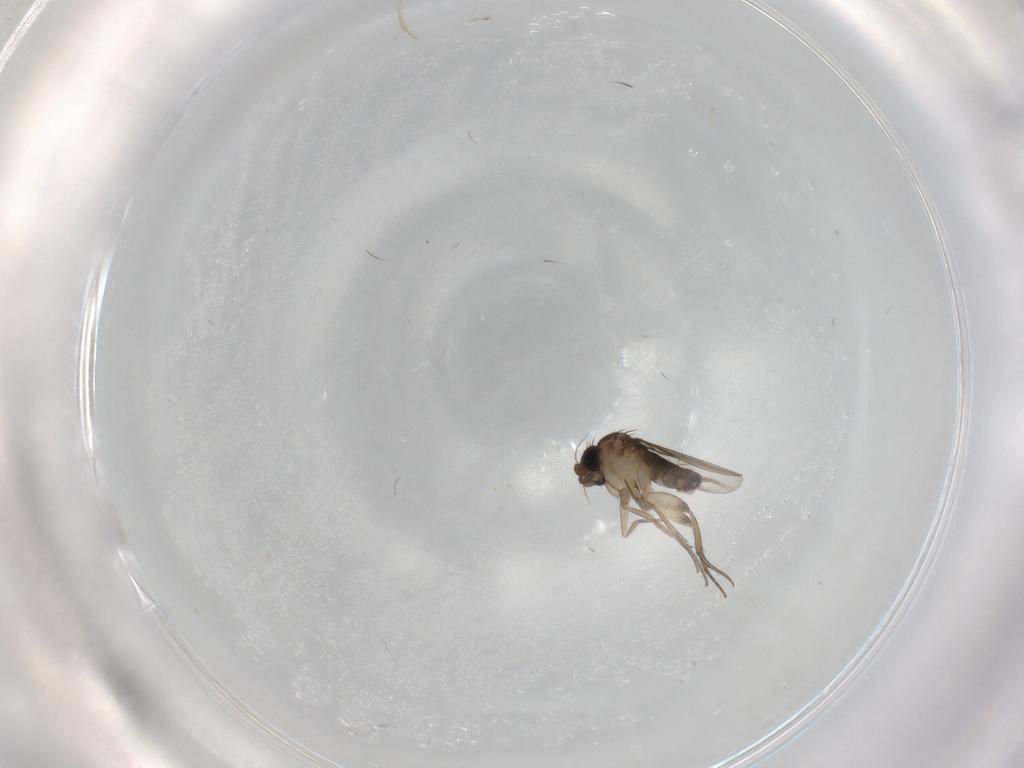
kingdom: Animalia
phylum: Arthropoda
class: Insecta
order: Diptera
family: Phoridae
